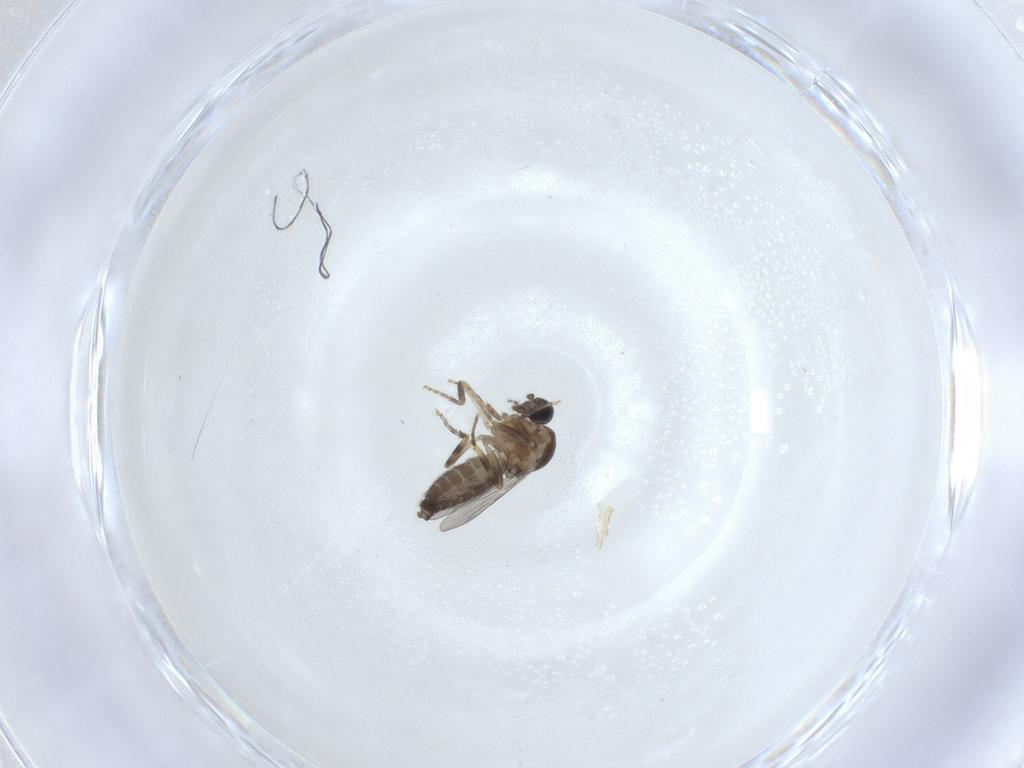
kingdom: Animalia
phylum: Arthropoda
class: Insecta
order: Diptera
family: Ceratopogonidae
